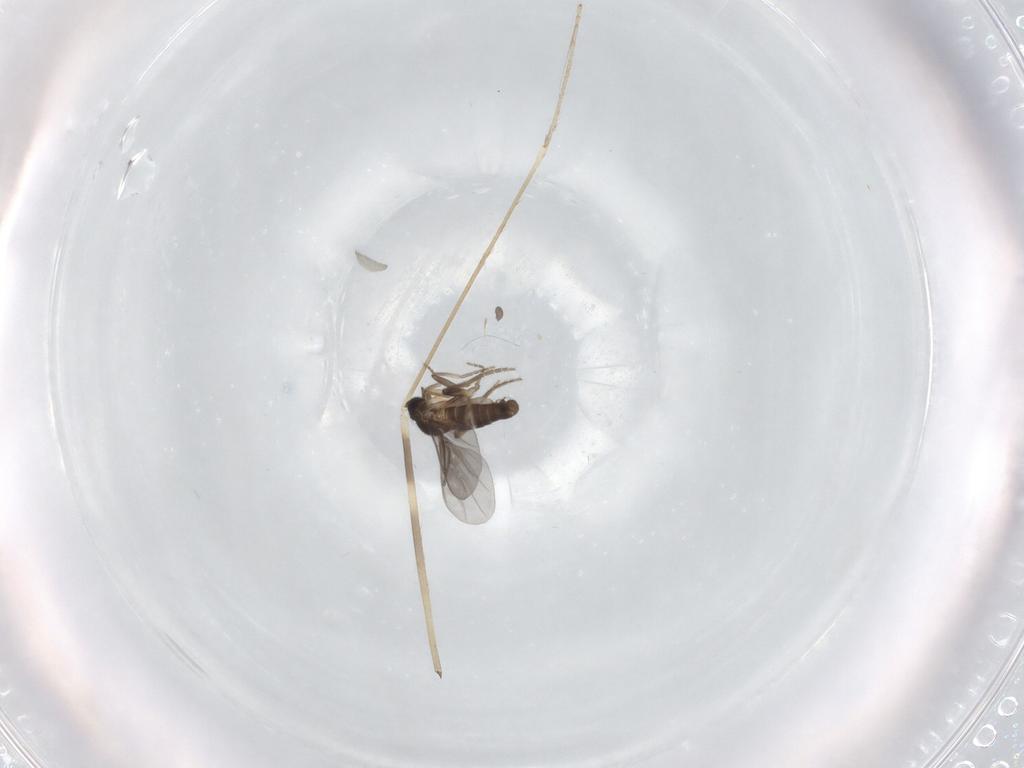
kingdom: Animalia
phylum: Arthropoda
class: Insecta
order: Diptera
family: Limoniidae
